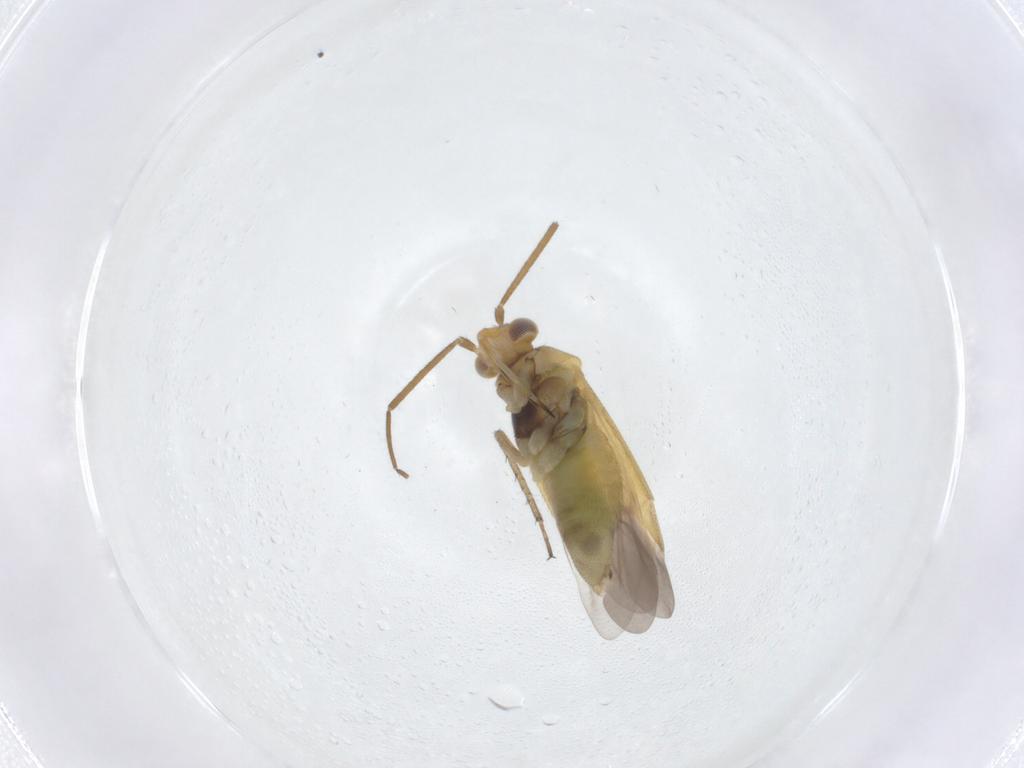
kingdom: Animalia
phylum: Arthropoda
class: Insecta
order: Hemiptera
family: Miridae
